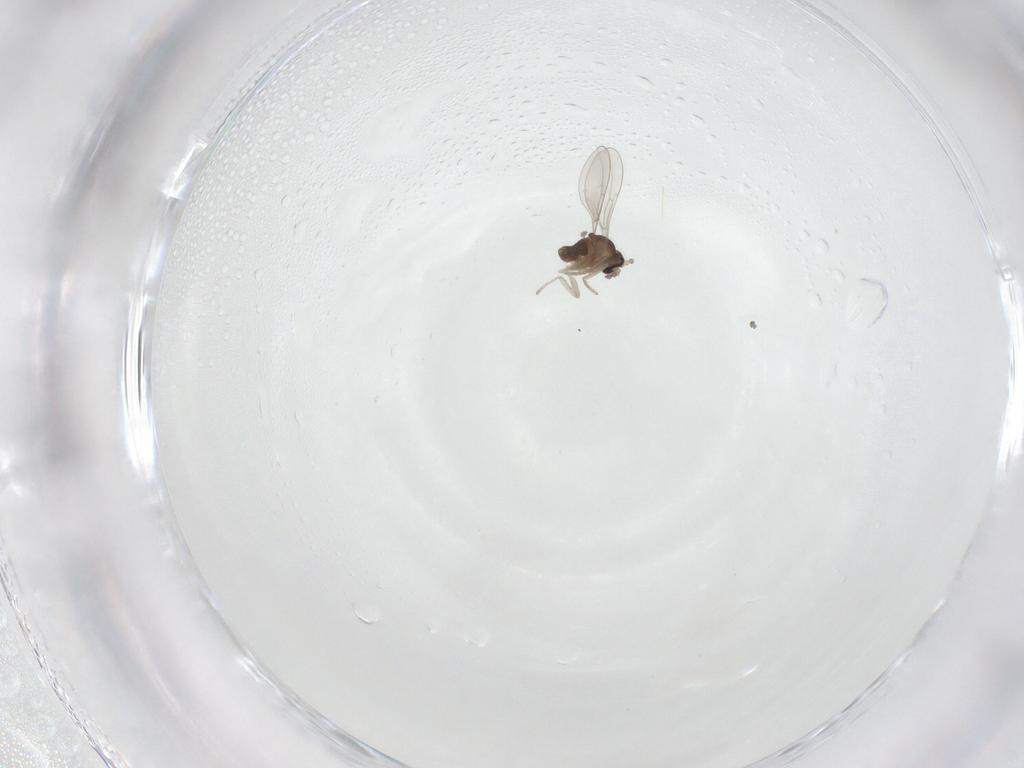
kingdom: Animalia
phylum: Arthropoda
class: Insecta
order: Diptera
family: Cecidomyiidae
